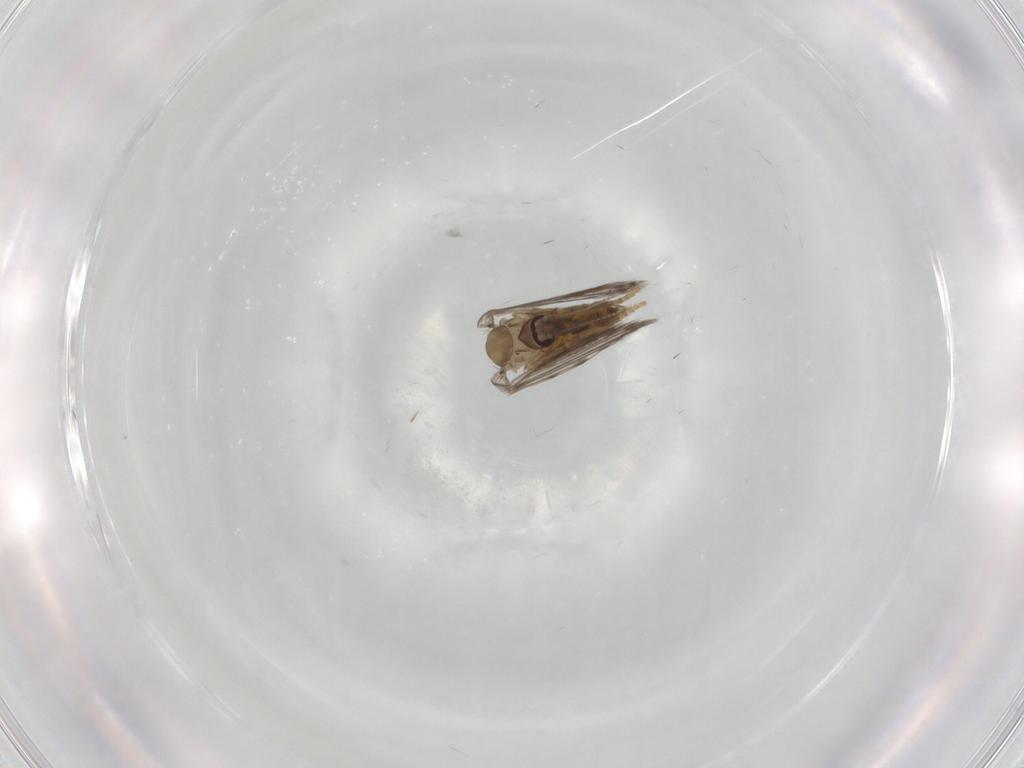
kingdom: Animalia
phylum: Arthropoda
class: Insecta
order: Diptera
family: Psychodidae
